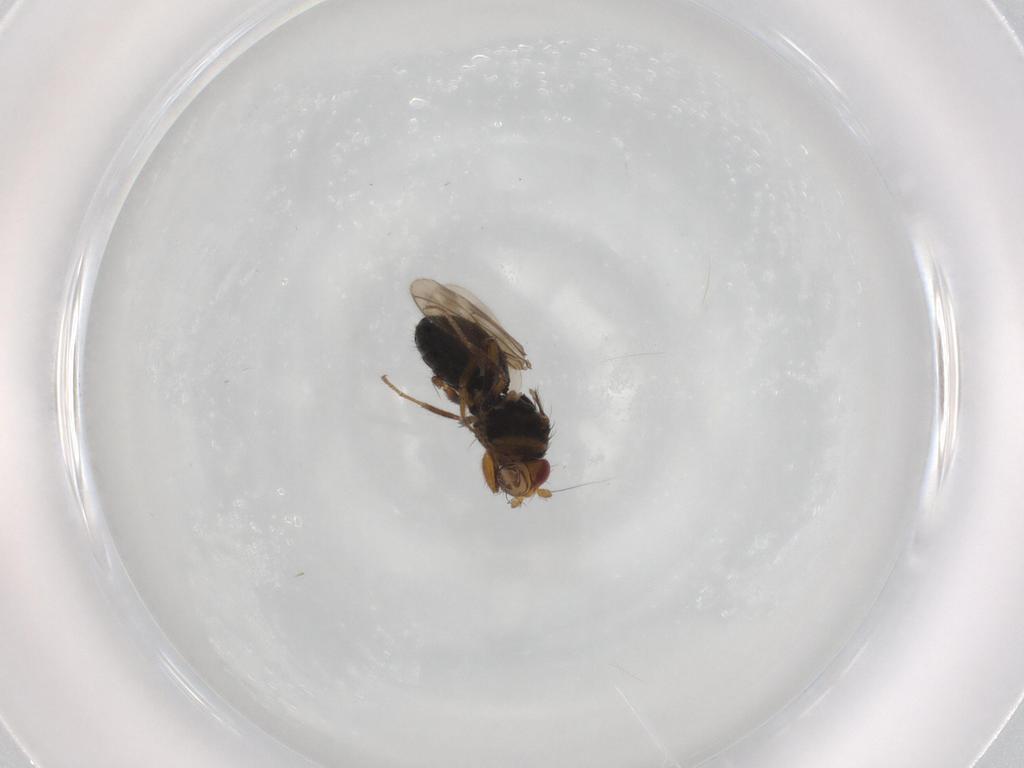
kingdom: Animalia
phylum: Arthropoda
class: Insecta
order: Diptera
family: Sphaeroceridae
